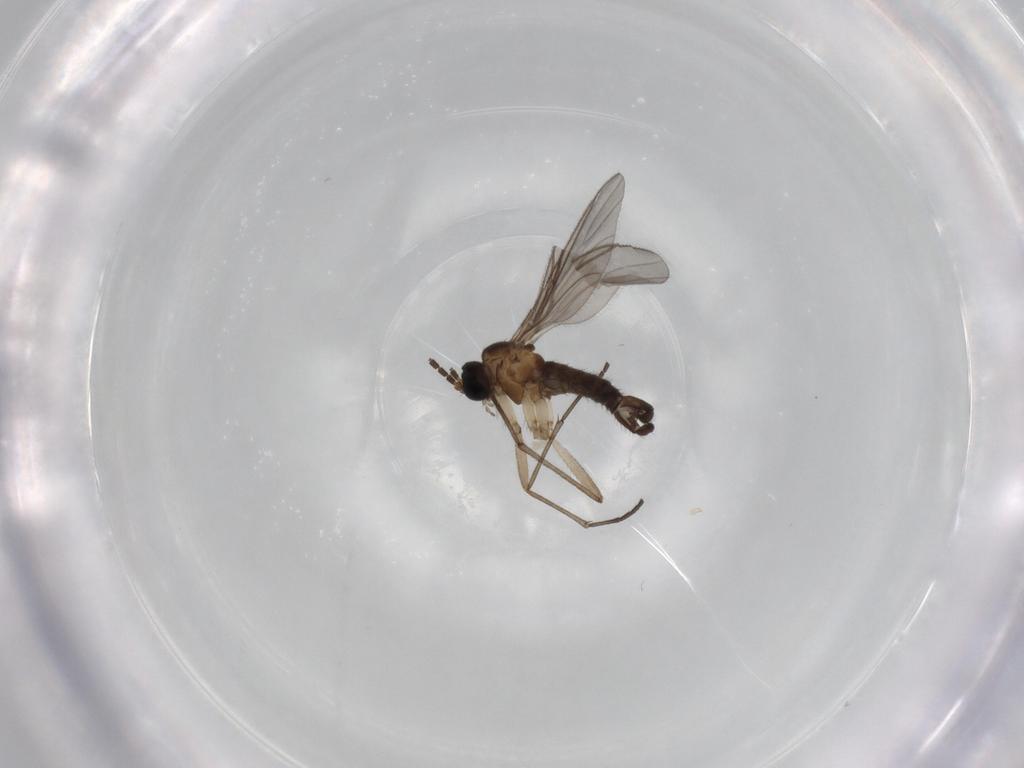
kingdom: Animalia
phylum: Arthropoda
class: Insecta
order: Diptera
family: Sciaridae
